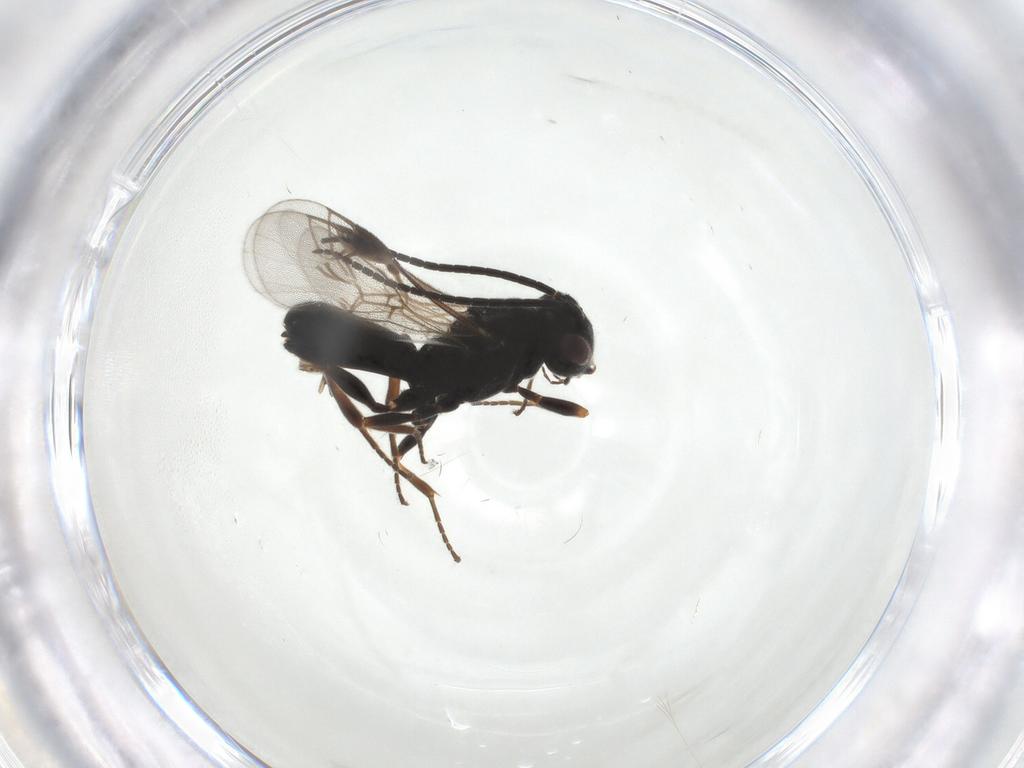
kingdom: Animalia
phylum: Arthropoda
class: Insecta
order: Hymenoptera
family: Braconidae
